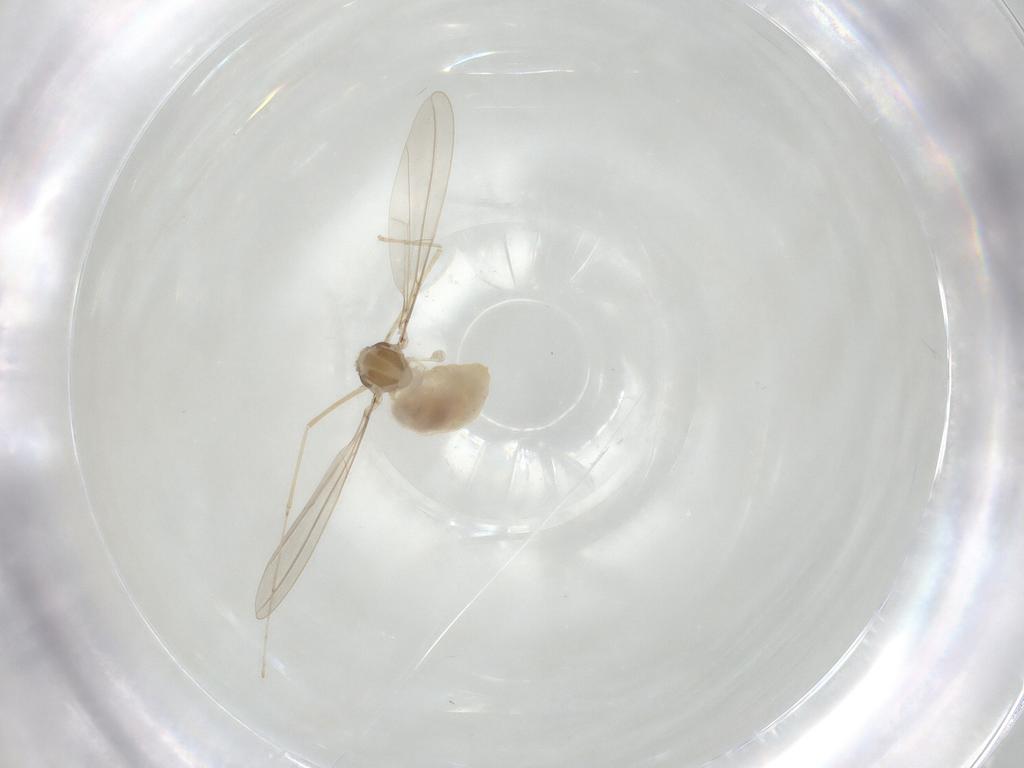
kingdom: Animalia
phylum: Arthropoda
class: Insecta
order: Diptera
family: Cecidomyiidae
